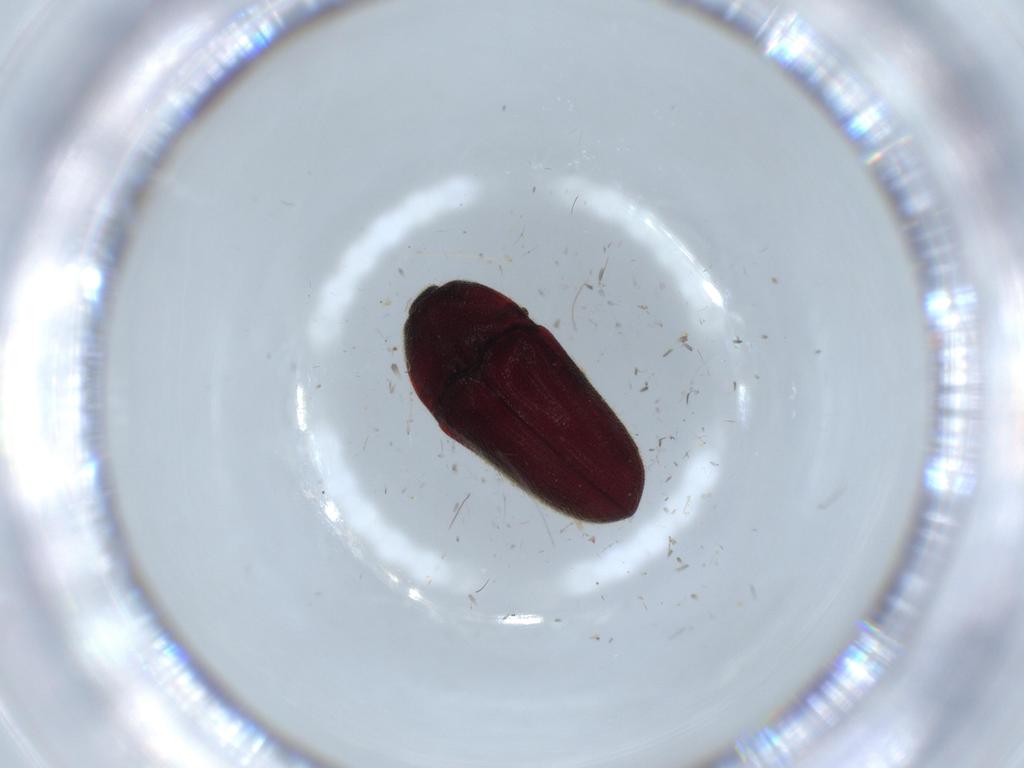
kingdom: Animalia
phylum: Arthropoda
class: Insecta
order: Coleoptera
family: Throscidae
